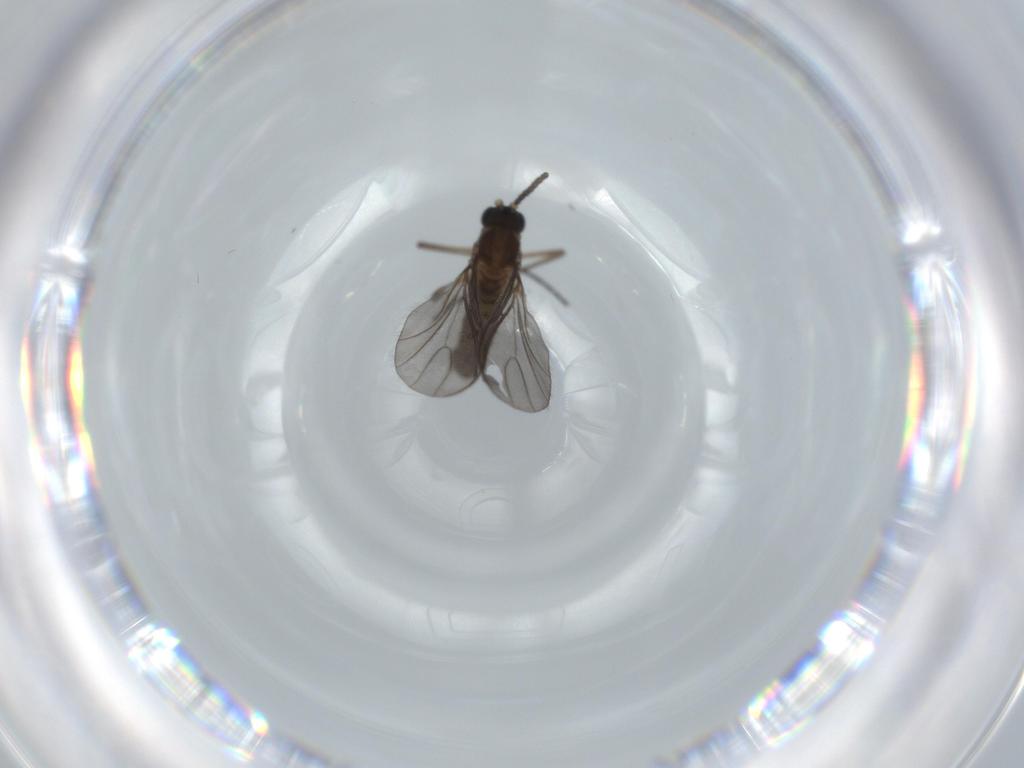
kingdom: Animalia
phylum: Arthropoda
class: Insecta
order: Diptera
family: Sciaridae
